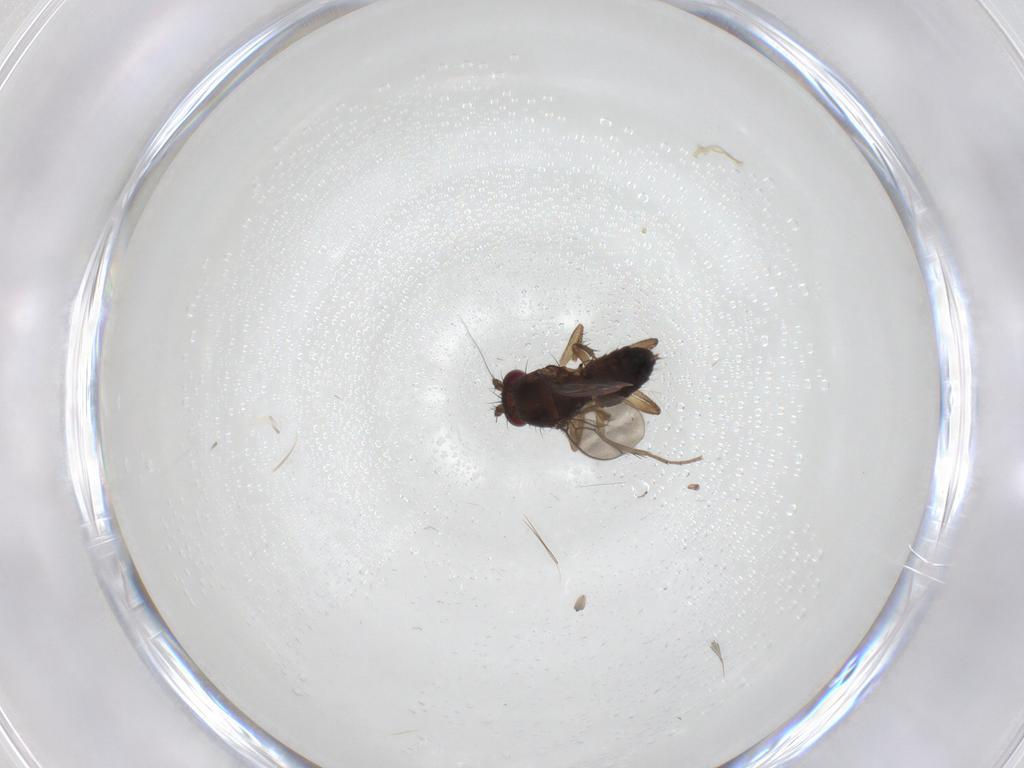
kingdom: Animalia
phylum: Arthropoda
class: Insecta
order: Diptera
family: Sphaeroceridae
